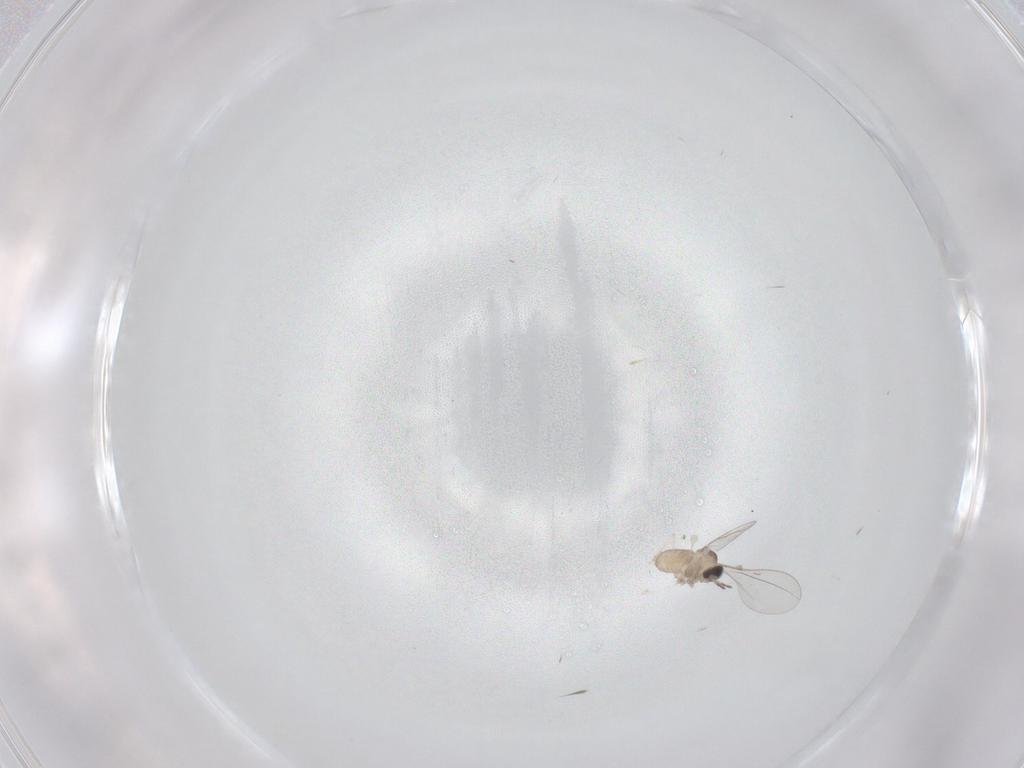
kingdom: Animalia
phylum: Arthropoda
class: Insecta
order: Diptera
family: Cecidomyiidae
